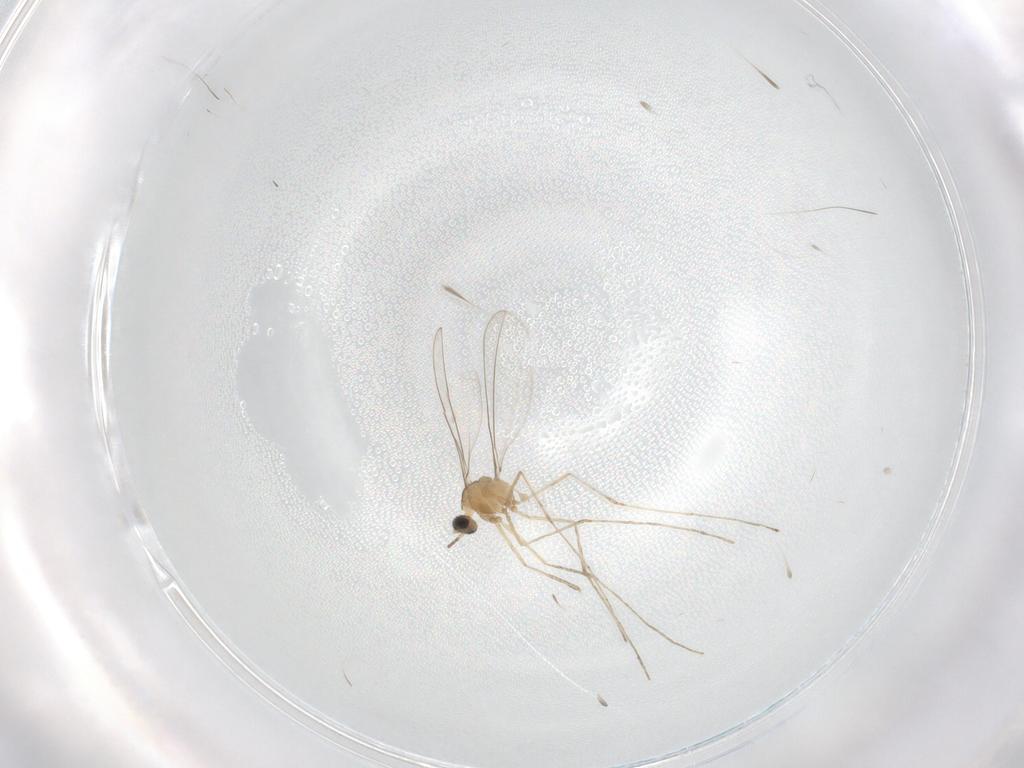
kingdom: Animalia
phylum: Arthropoda
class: Insecta
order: Diptera
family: Cecidomyiidae
